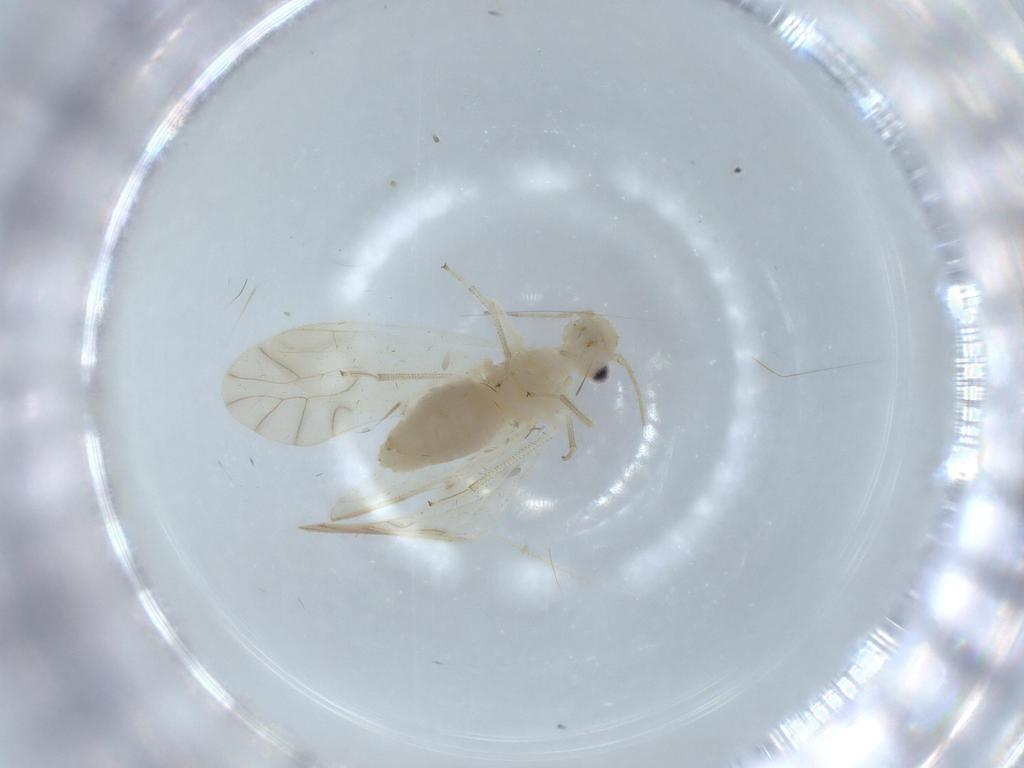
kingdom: Animalia
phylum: Arthropoda
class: Insecta
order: Psocodea
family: Caeciliusidae
